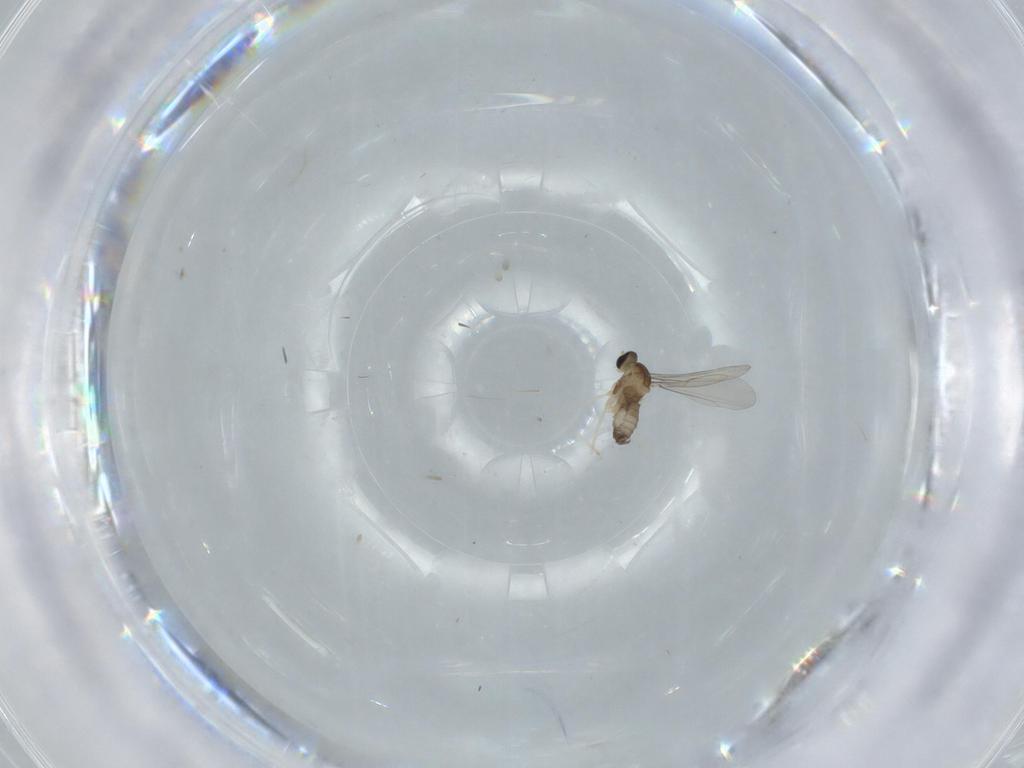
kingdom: Animalia
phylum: Arthropoda
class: Insecta
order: Diptera
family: Cecidomyiidae
